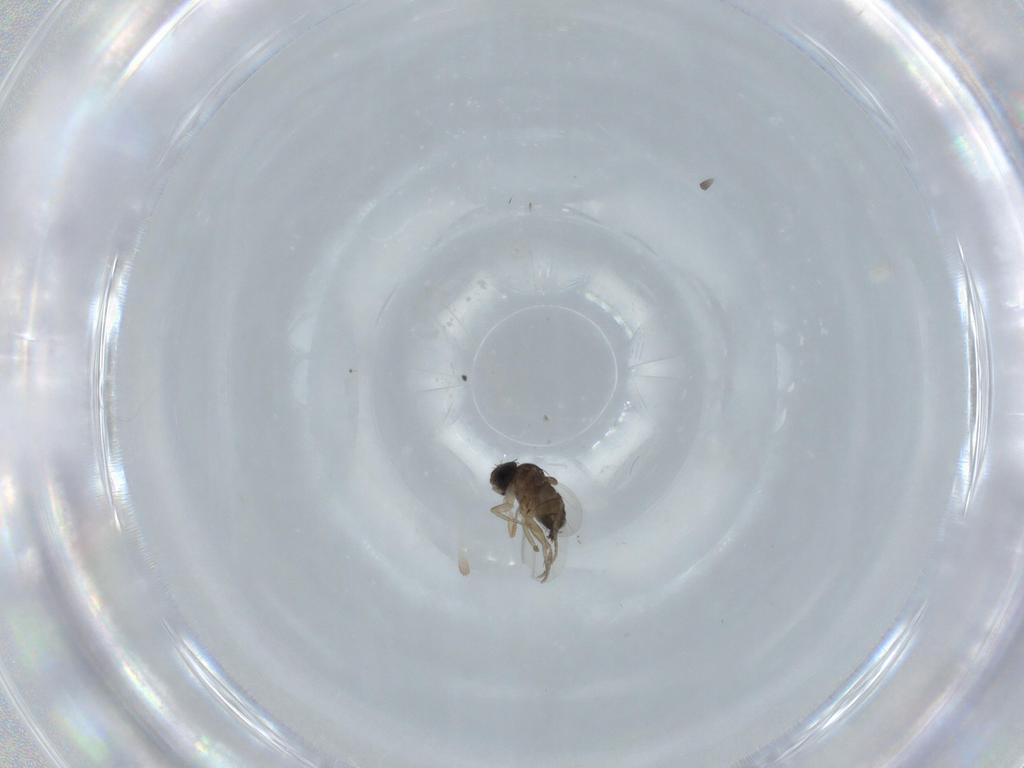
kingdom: Animalia
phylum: Arthropoda
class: Insecta
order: Diptera
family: Phoridae
